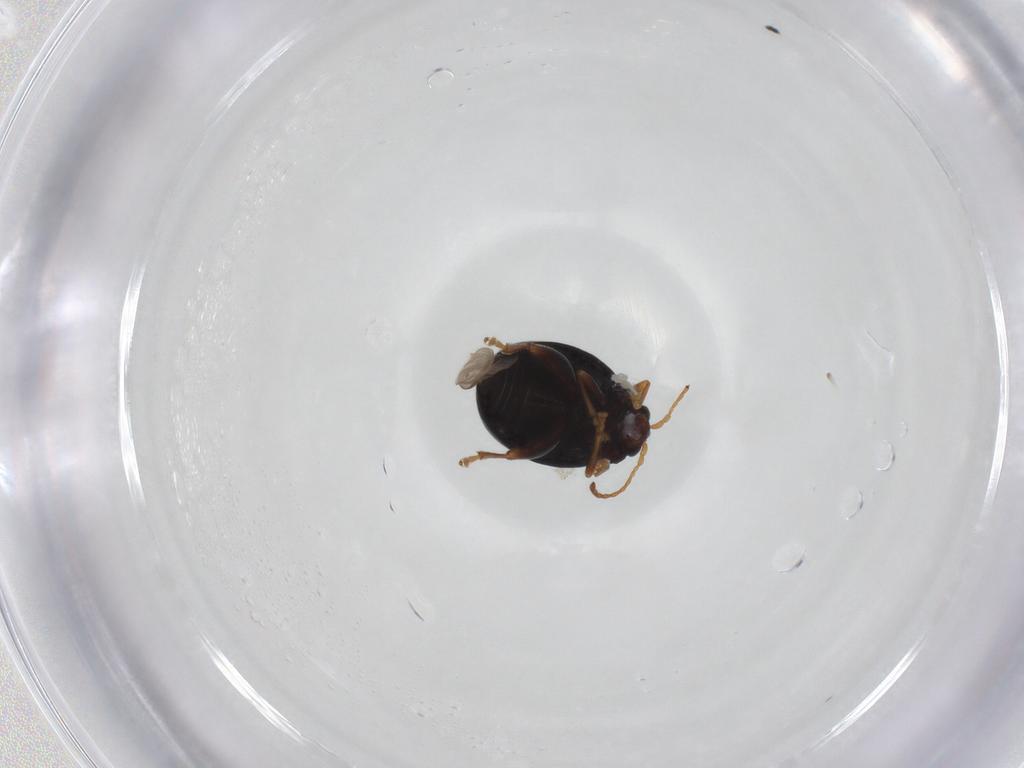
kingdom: Animalia
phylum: Arthropoda
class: Insecta
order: Coleoptera
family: Chrysomelidae
